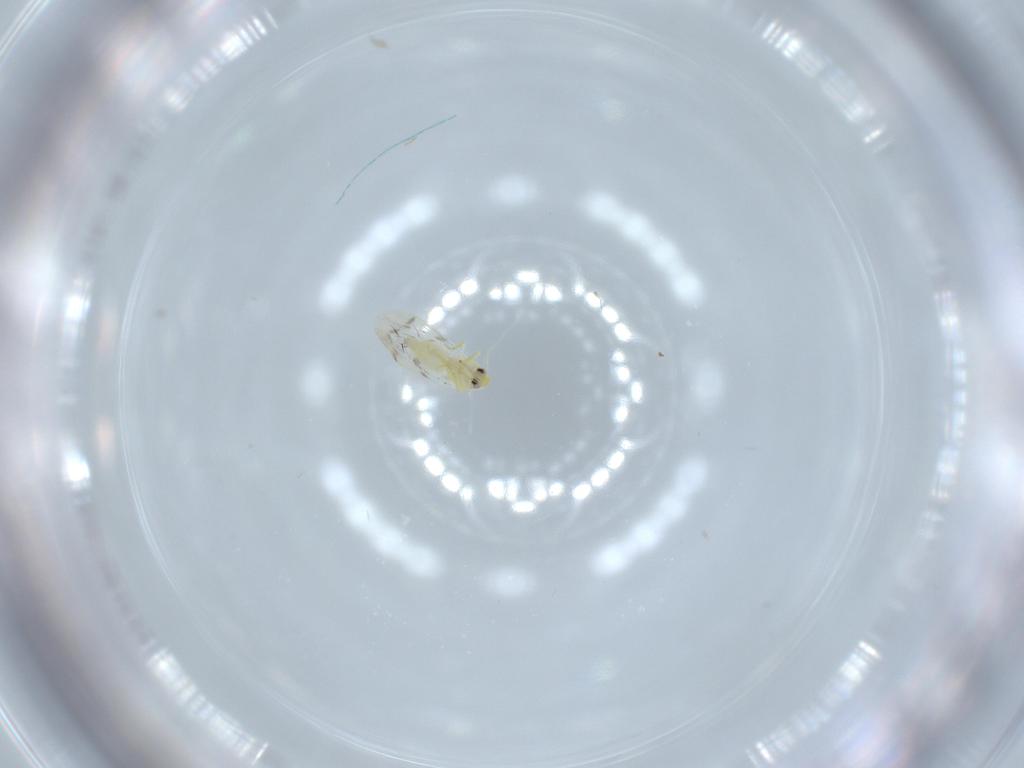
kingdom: Animalia
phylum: Arthropoda
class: Insecta
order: Hemiptera
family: Aleyrodidae
